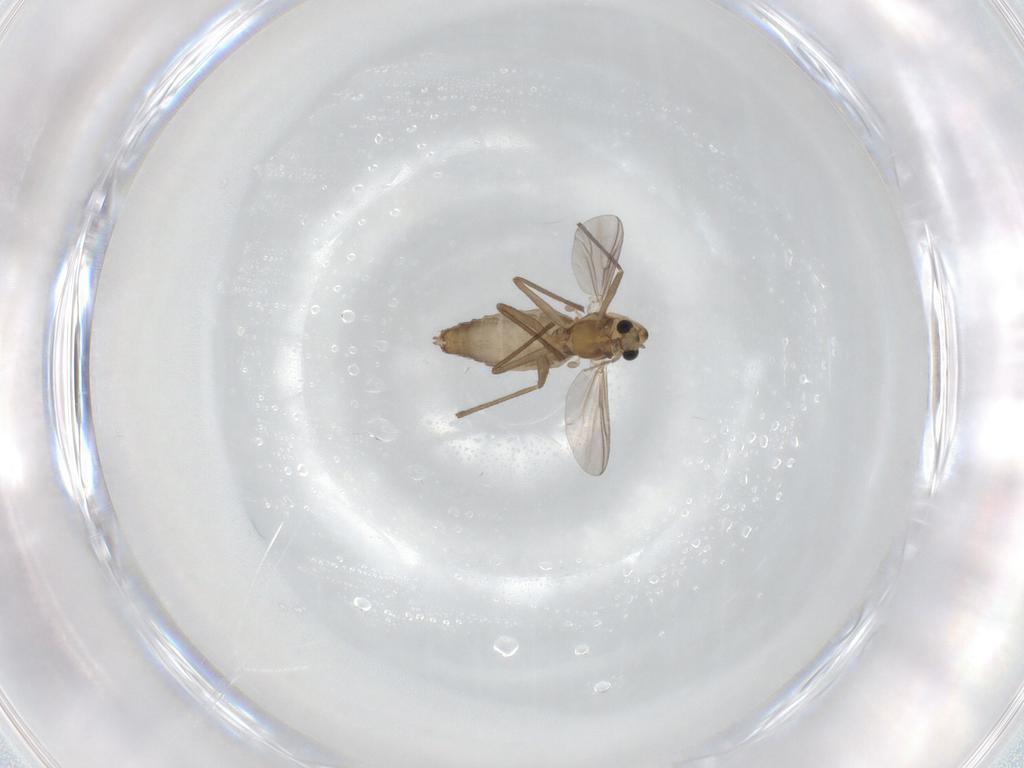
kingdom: Animalia
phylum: Arthropoda
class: Insecta
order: Diptera
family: Chironomidae
